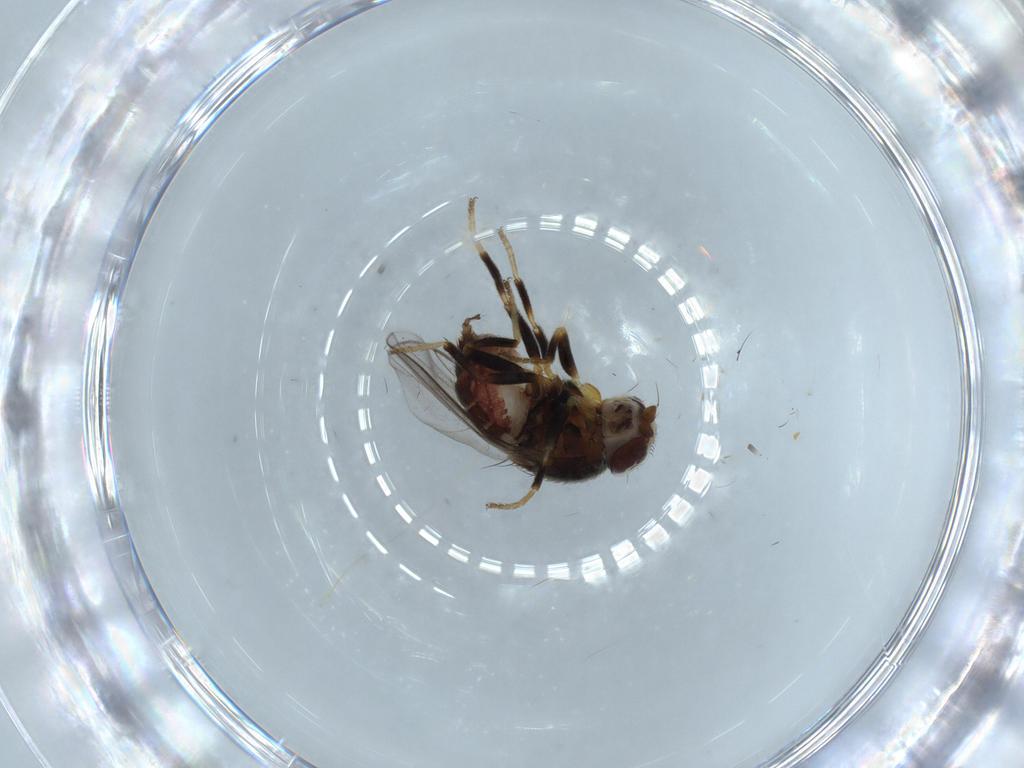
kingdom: Animalia
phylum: Arthropoda
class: Insecta
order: Diptera
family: Chloropidae
